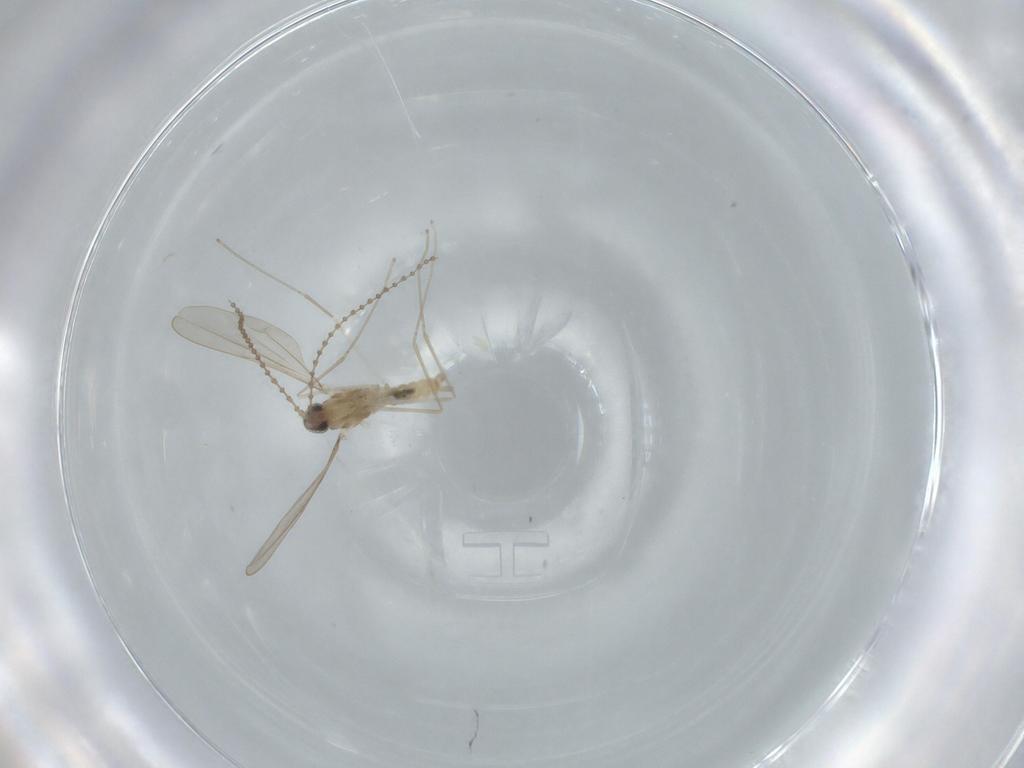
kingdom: Animalia
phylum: Arthropoda
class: Insecta
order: Diptera
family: Cecidomyiidae
